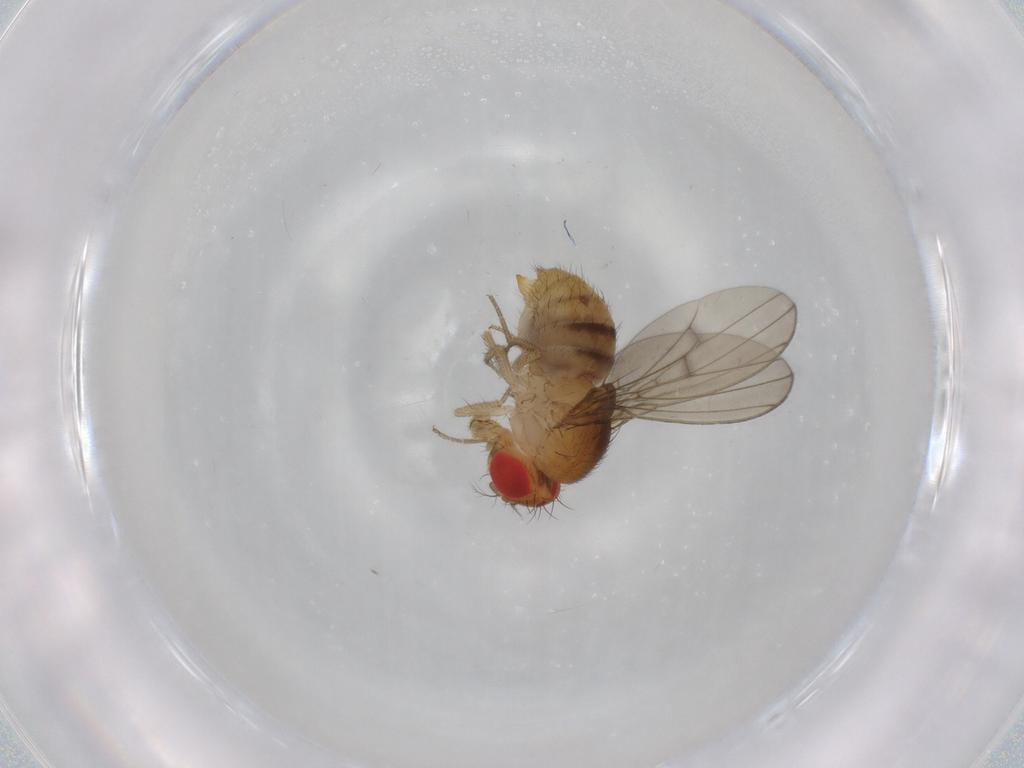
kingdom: Animalia
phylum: Arthropoda
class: Insecta
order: Diptera
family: Drosophilidae
